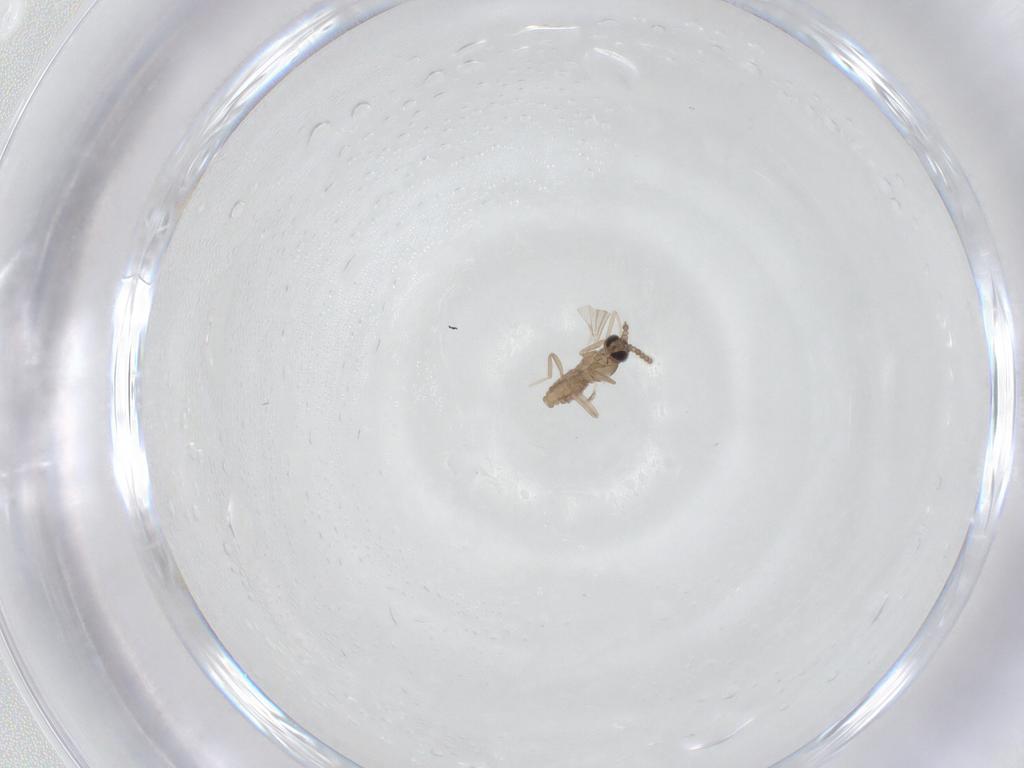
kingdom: Animalia
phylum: Arthropoda
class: Insecta
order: Diptera
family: Cecidomyiidae
